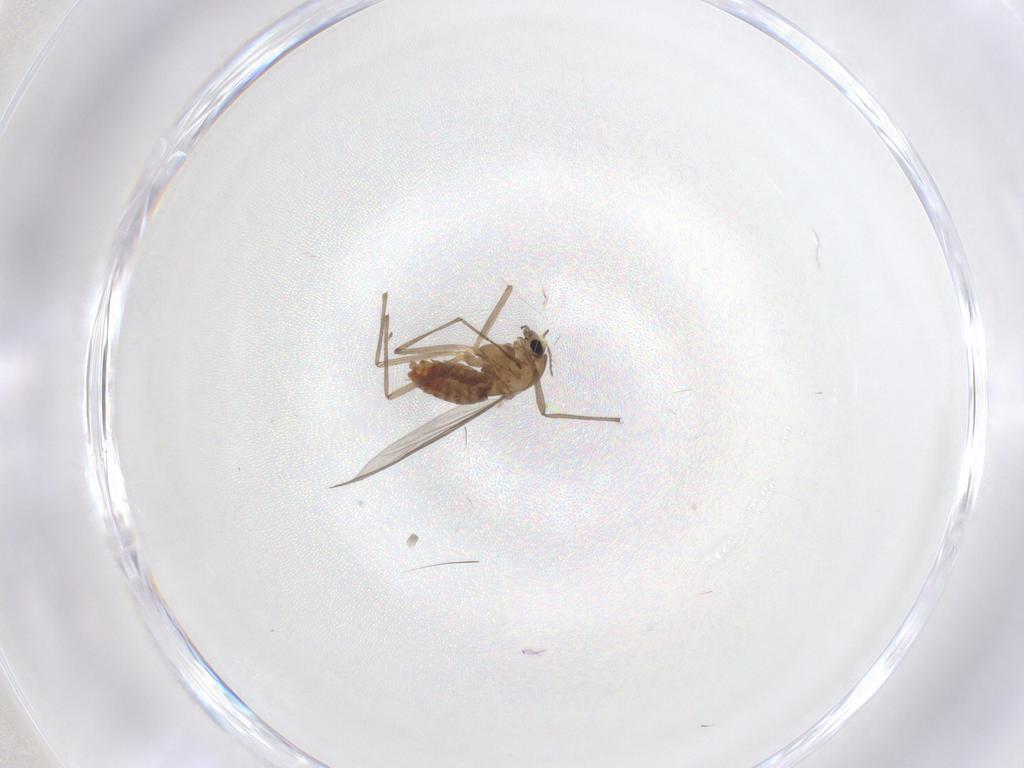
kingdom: Animalia
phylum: Arthropoda
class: Insecta
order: Diptera
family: Chironomidae
